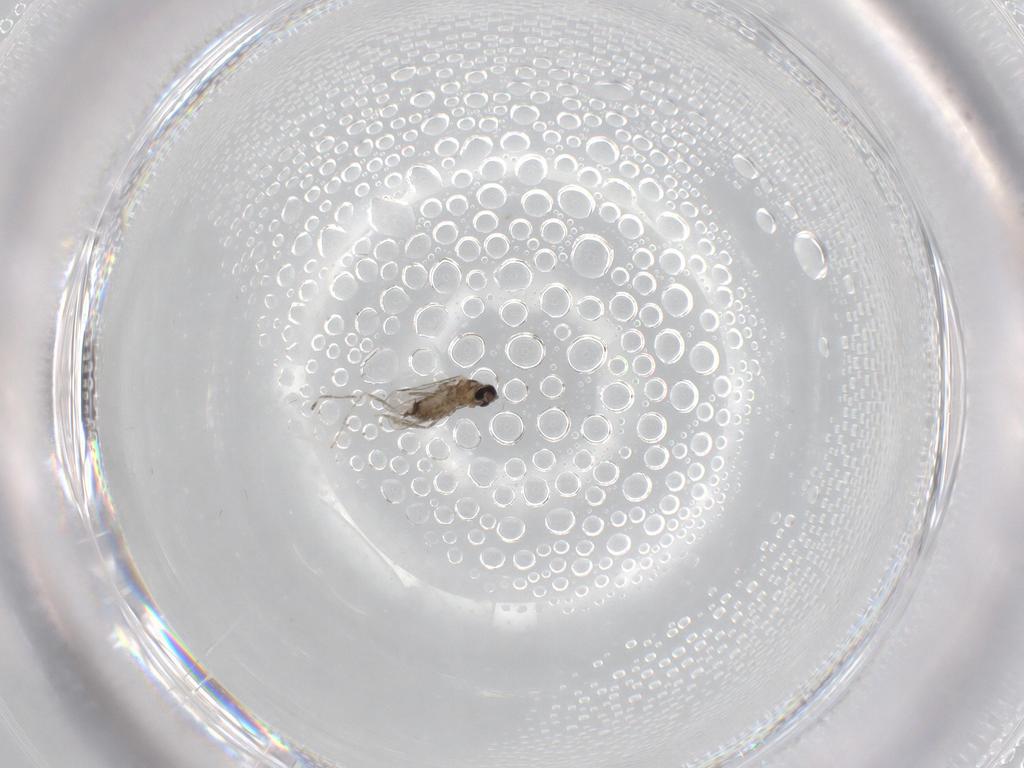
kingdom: Animalia
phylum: Arthropoda
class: Insecta
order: Diptera
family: Cecidomyiidae
